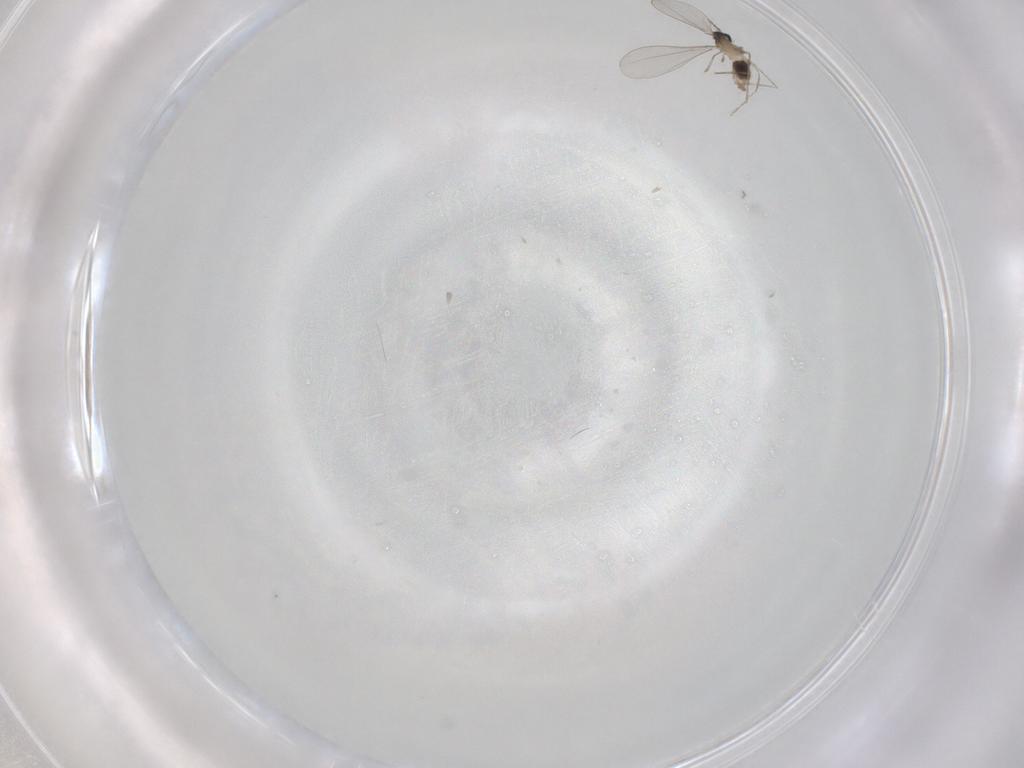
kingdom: Animalia
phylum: Arthropoda
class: Insecta
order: Diptera
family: Cecidomyiidae
